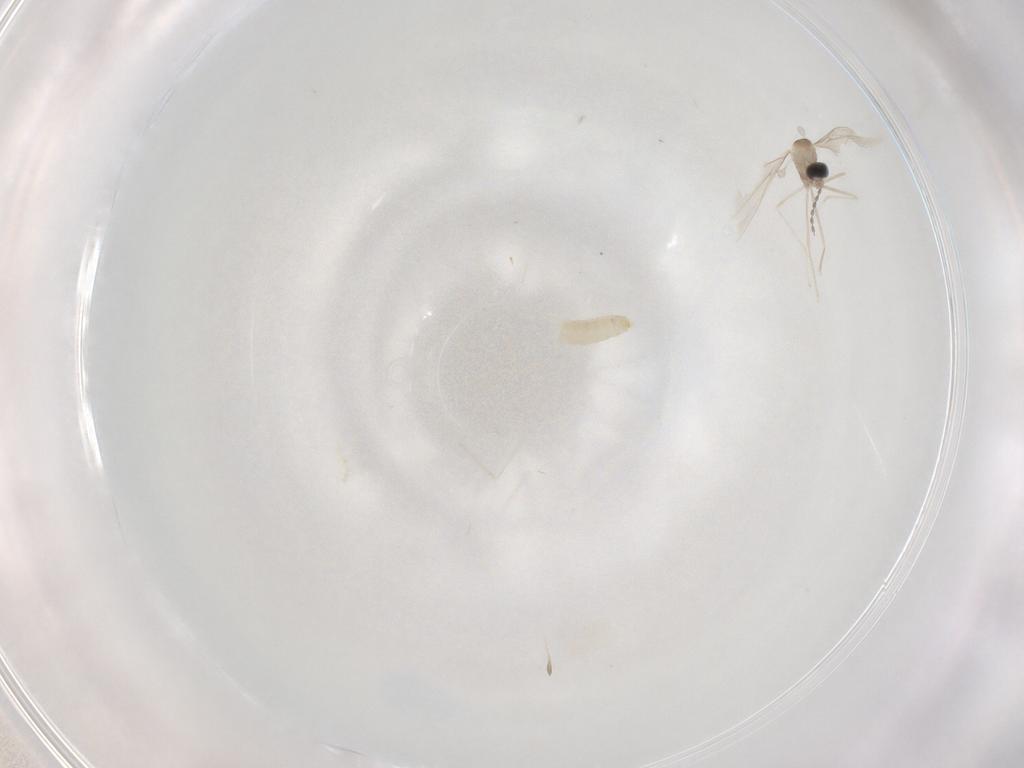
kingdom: Animalia
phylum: Arthropoda
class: Insecta
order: Diptera
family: Cecidomyiidae
